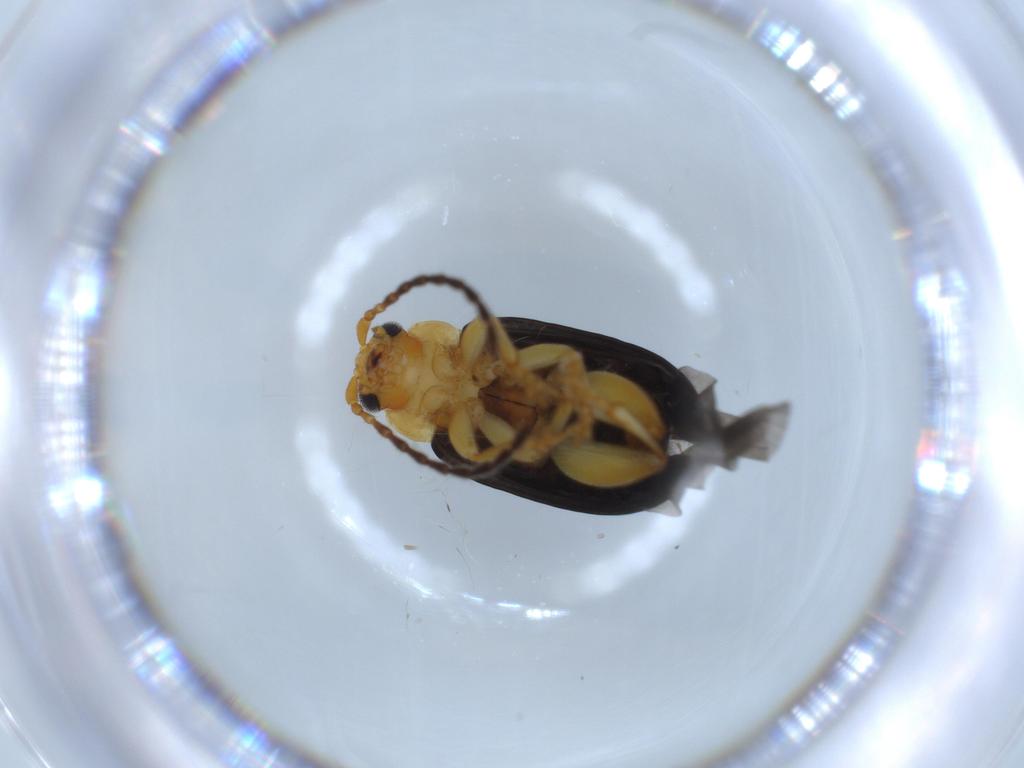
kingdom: Animalia
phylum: Arthropoda
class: Insecta
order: Coleoptera
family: Chrysomelidae
